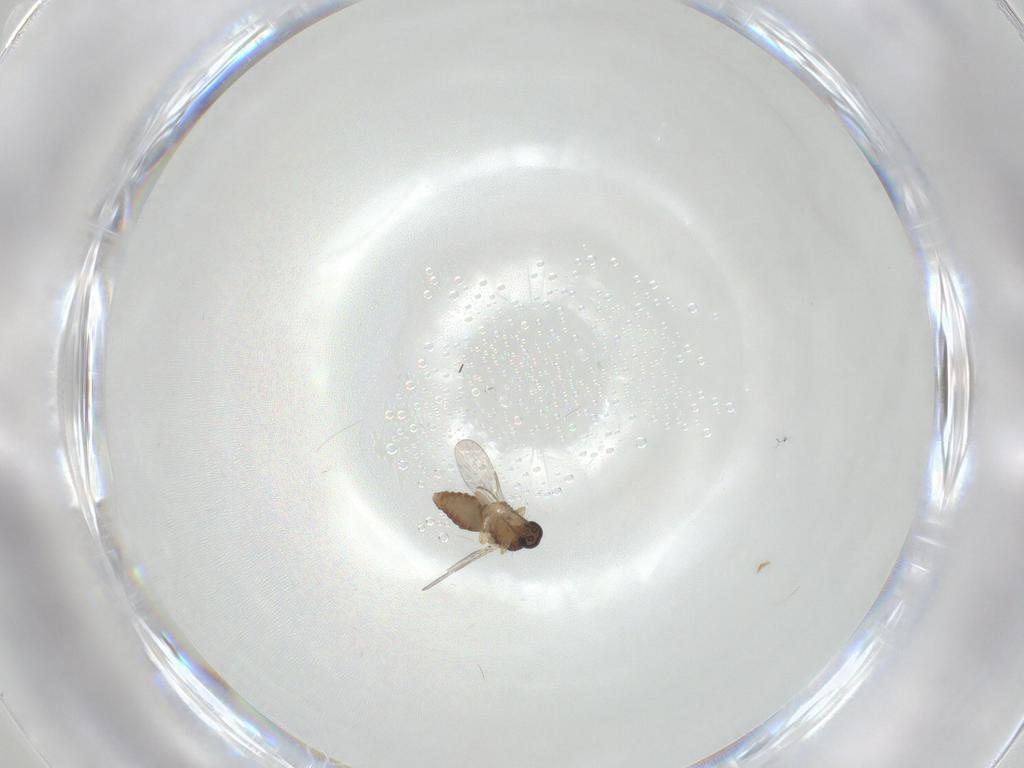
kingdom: Animalia
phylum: Arthropoda
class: Insecta
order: Diptera
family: Ceratopogonidae
